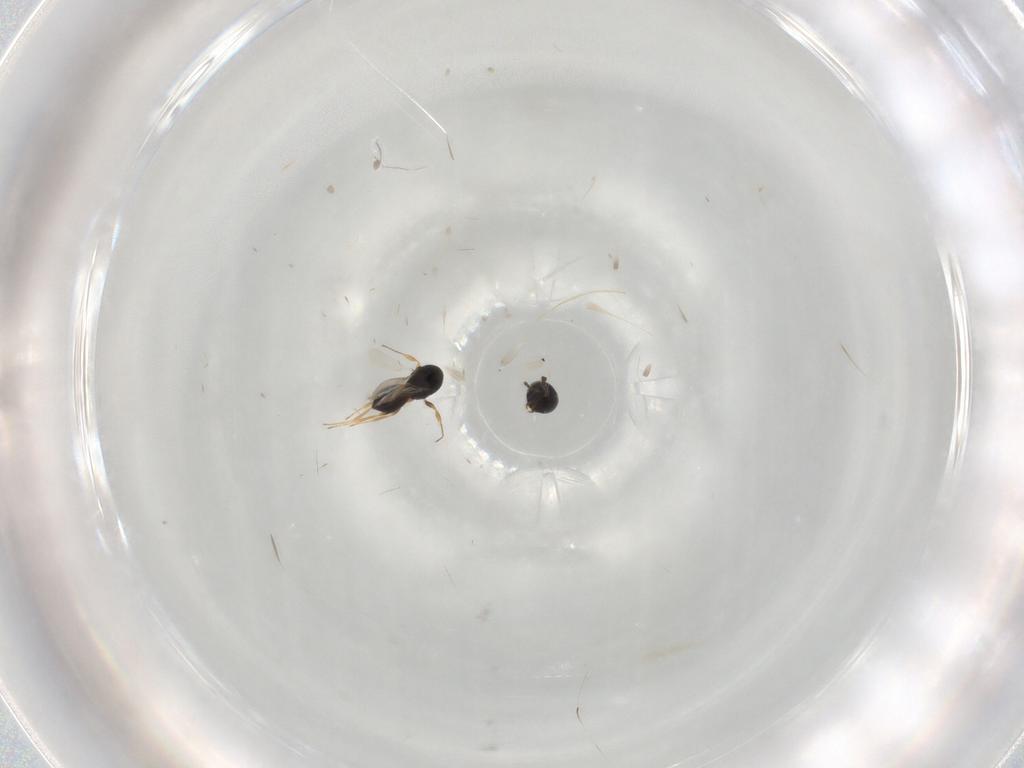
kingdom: Animalia
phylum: Arthropoda
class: Insecta
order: Hymenoptera
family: Scelionidae
